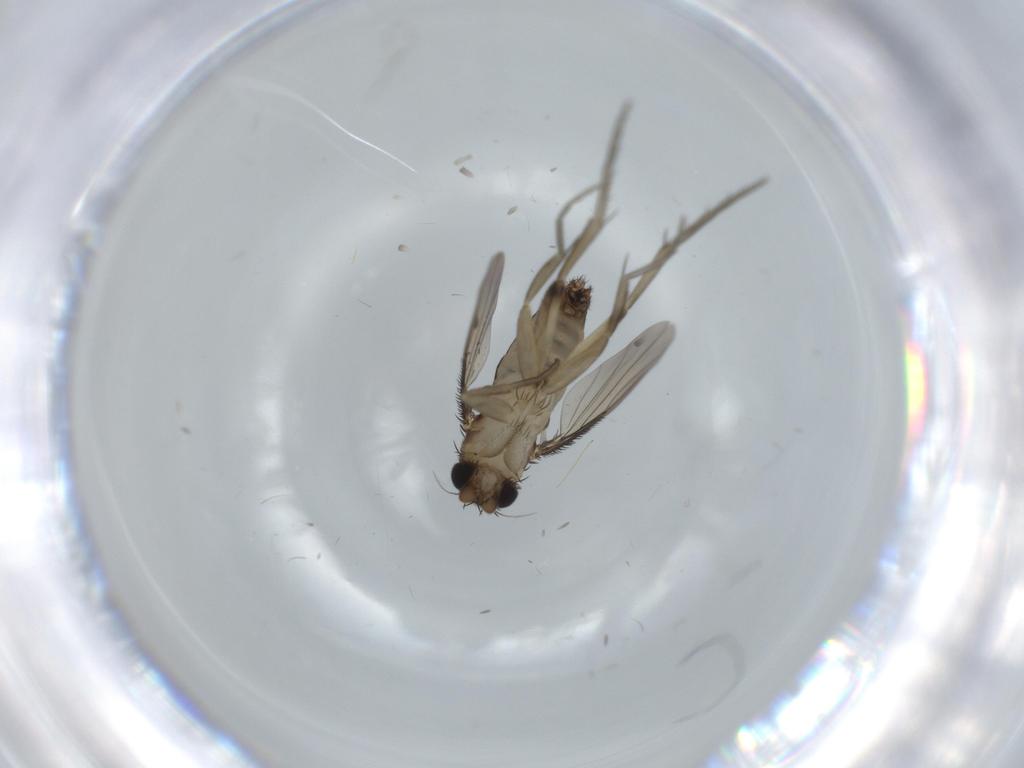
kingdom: Animalia
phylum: Arthropoda
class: Insecta
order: Diptera
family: Phoridae
